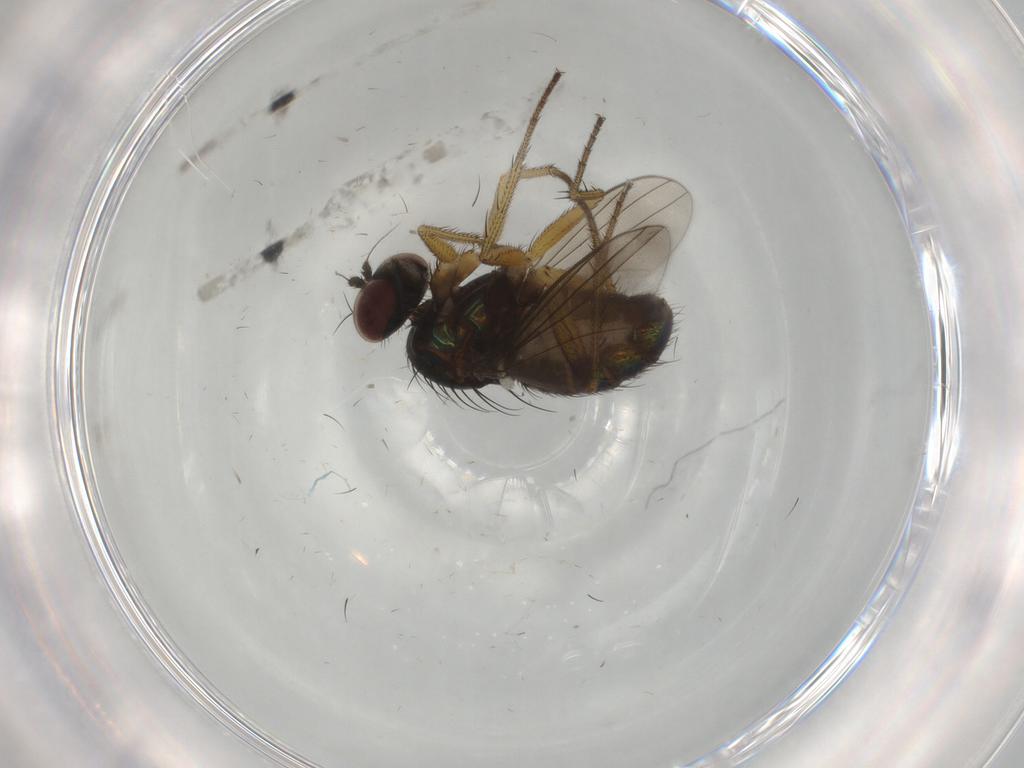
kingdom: Animalia
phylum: Arthropoda
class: Insecta
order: Diptera
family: Dolichopodidae
